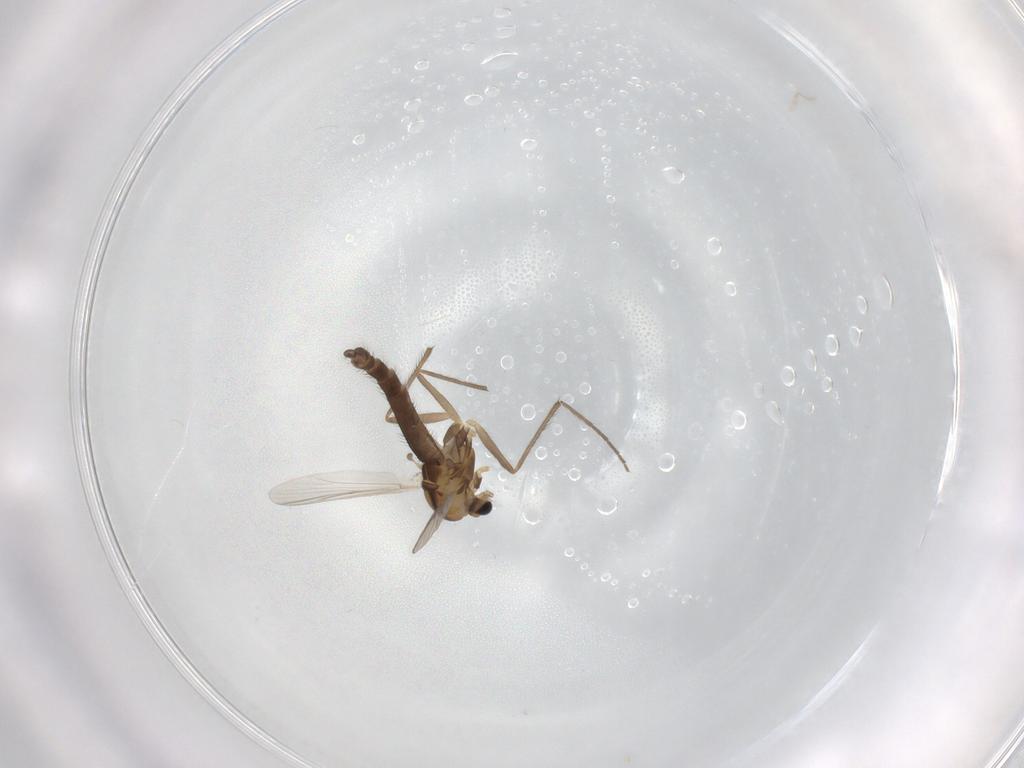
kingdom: Animalia
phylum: Arthropoda
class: Insecta
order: Diptera
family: Chironomidae
